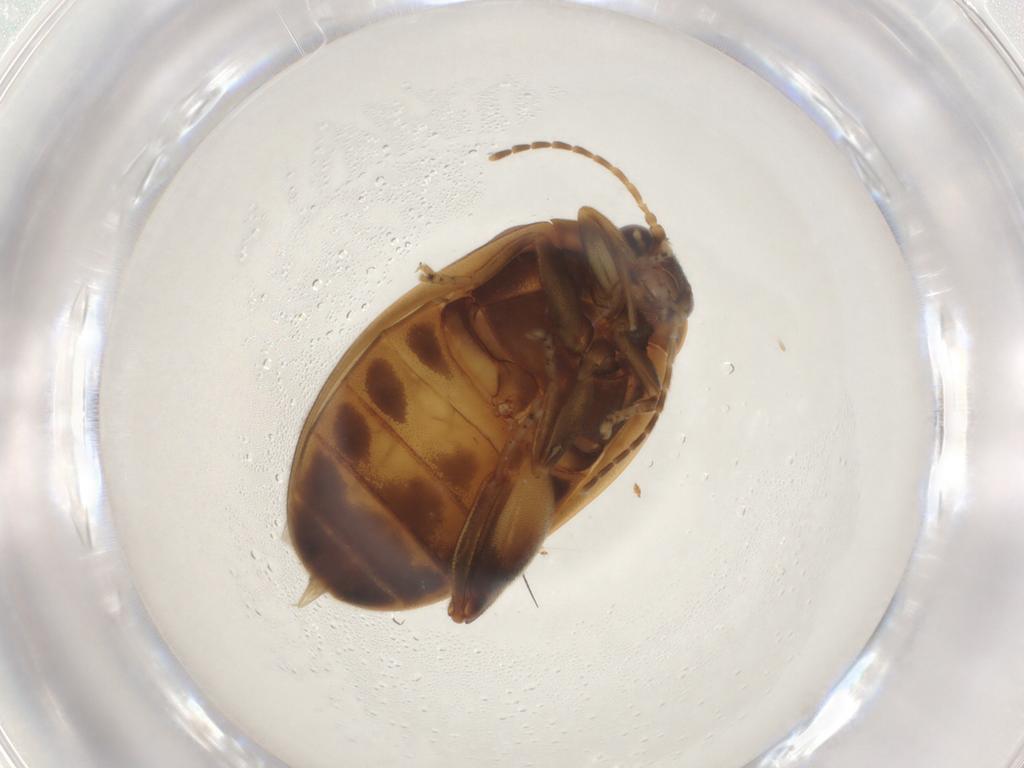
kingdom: Animalia
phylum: Arthropoda
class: Insecta
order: Coleoptera
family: Scirtidae
